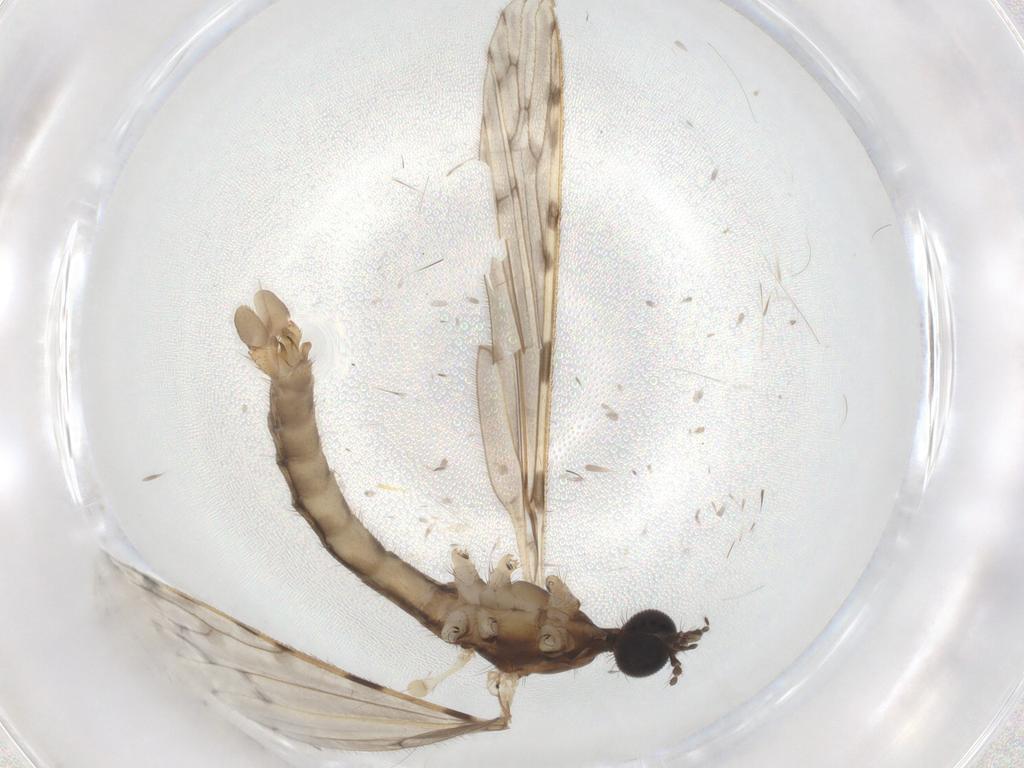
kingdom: Animalia
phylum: Arthropoda
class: Insecta
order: Diptera
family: Cecidomyiidae
